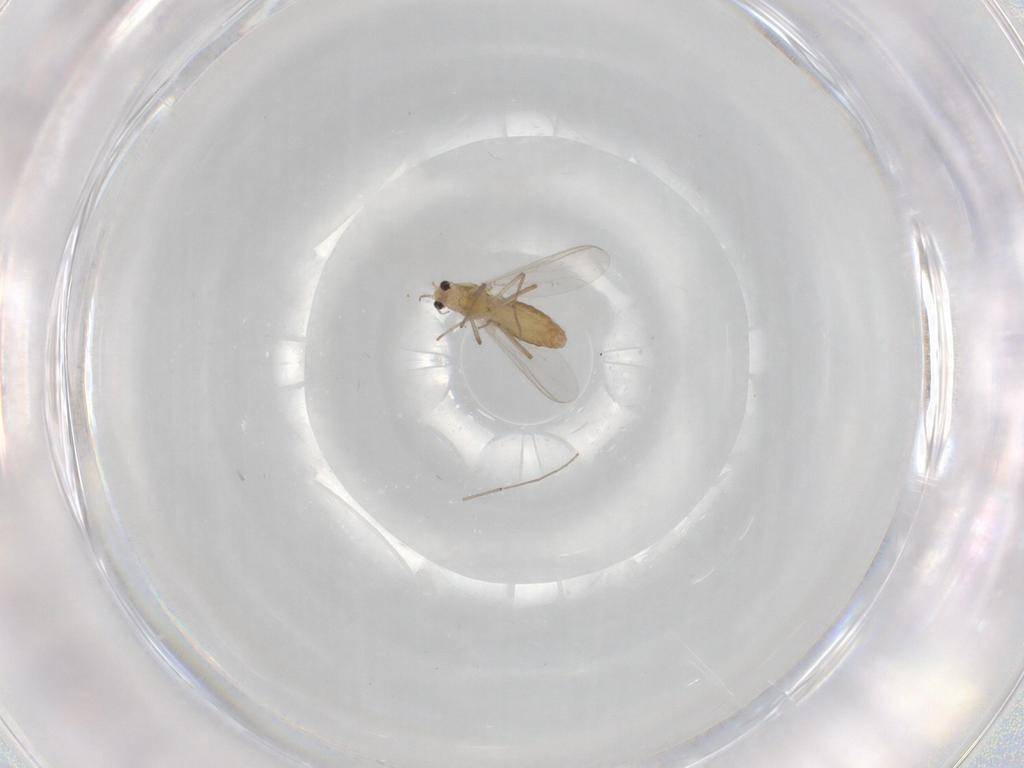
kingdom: Animalia
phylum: Arthropoda
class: Insecta
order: Diptera
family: Chironomidae
